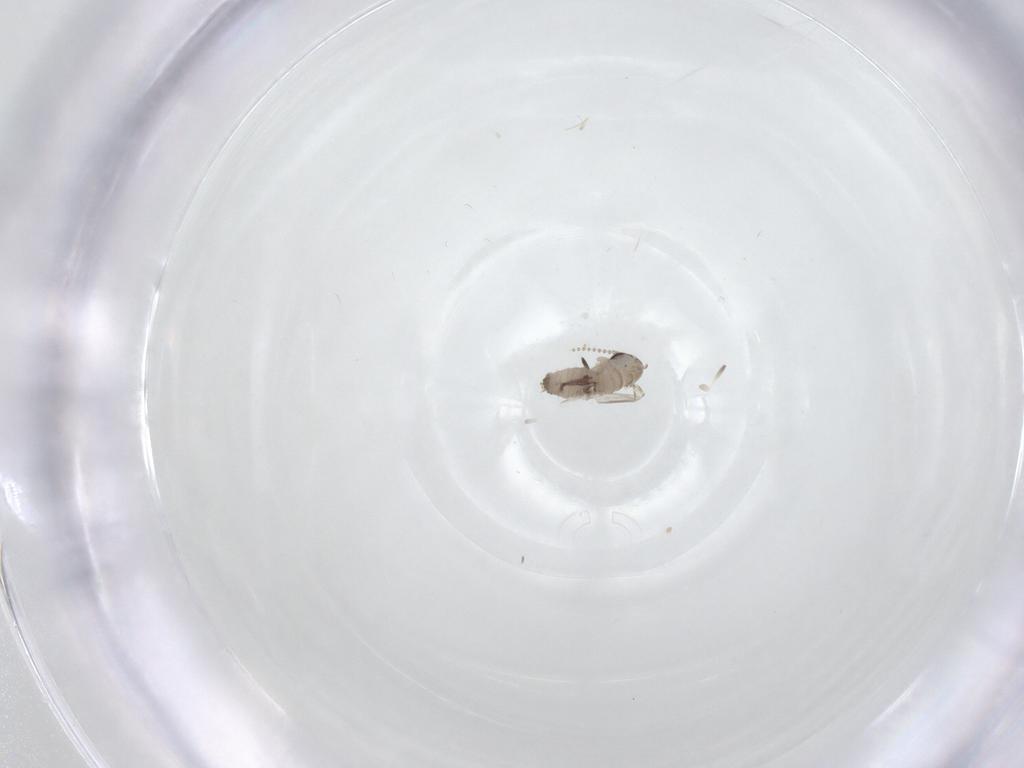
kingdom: Animalia
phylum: Arthropoda
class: Insecta
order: Diptera
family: Psychodidae
